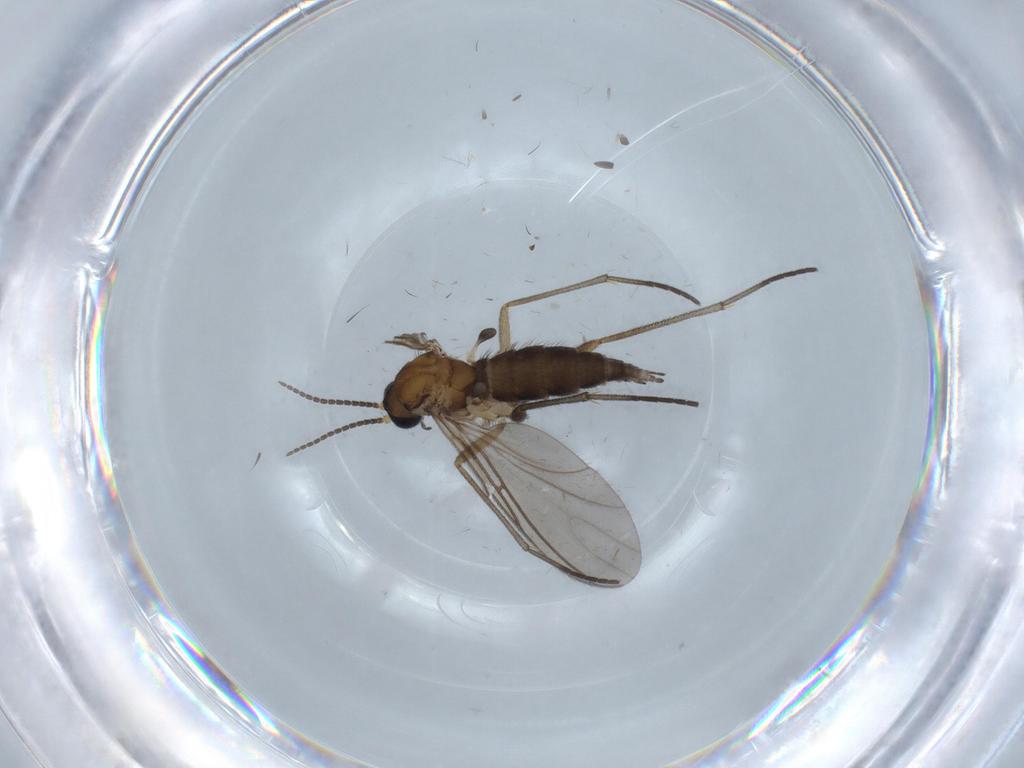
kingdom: Animalia
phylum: Arthropoda
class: Insecta
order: Diptera
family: Sciaridae
